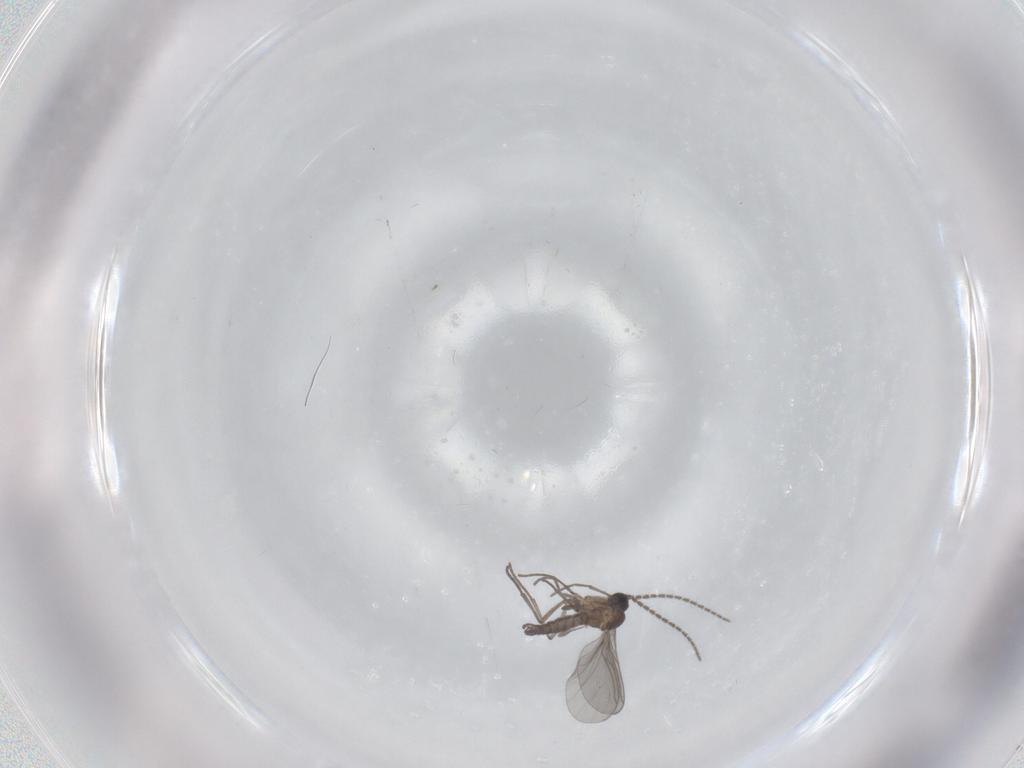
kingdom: Animalia
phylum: Arthropoda
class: Insecta
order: Diptera
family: Sciaridae
